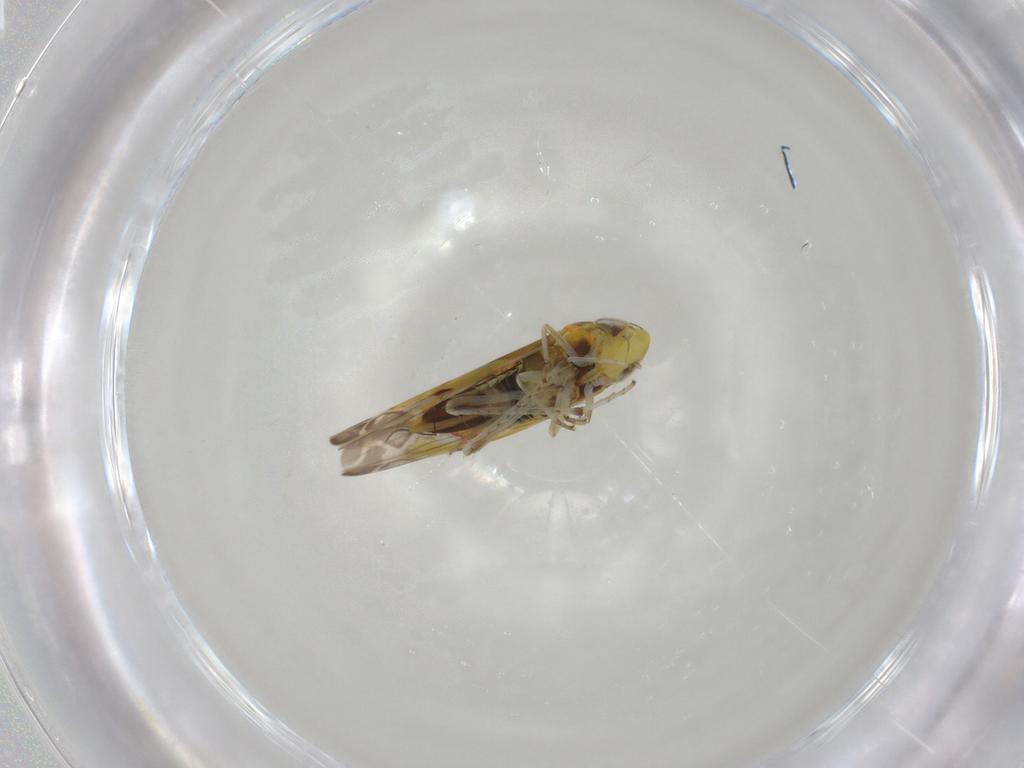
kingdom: Animalia
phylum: Arthropoda
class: Insecta
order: Hemiptera
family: Cicadellidae
